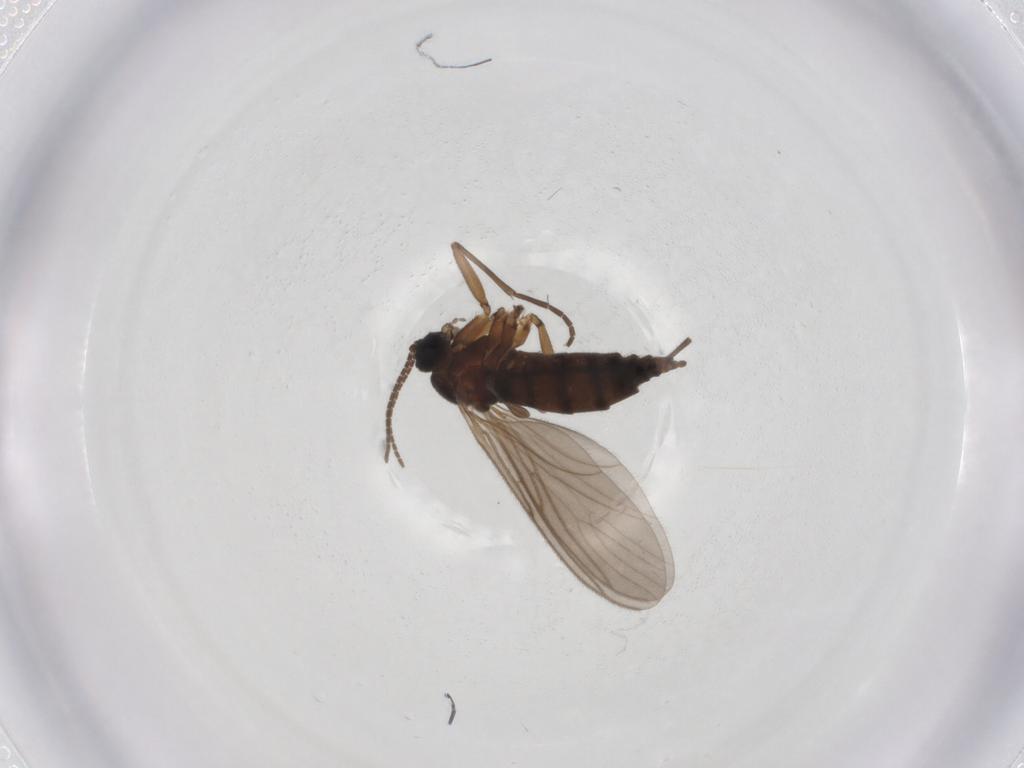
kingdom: Animalia
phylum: Arthropoda
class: Insecta
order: Diptera
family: Sciaridae
